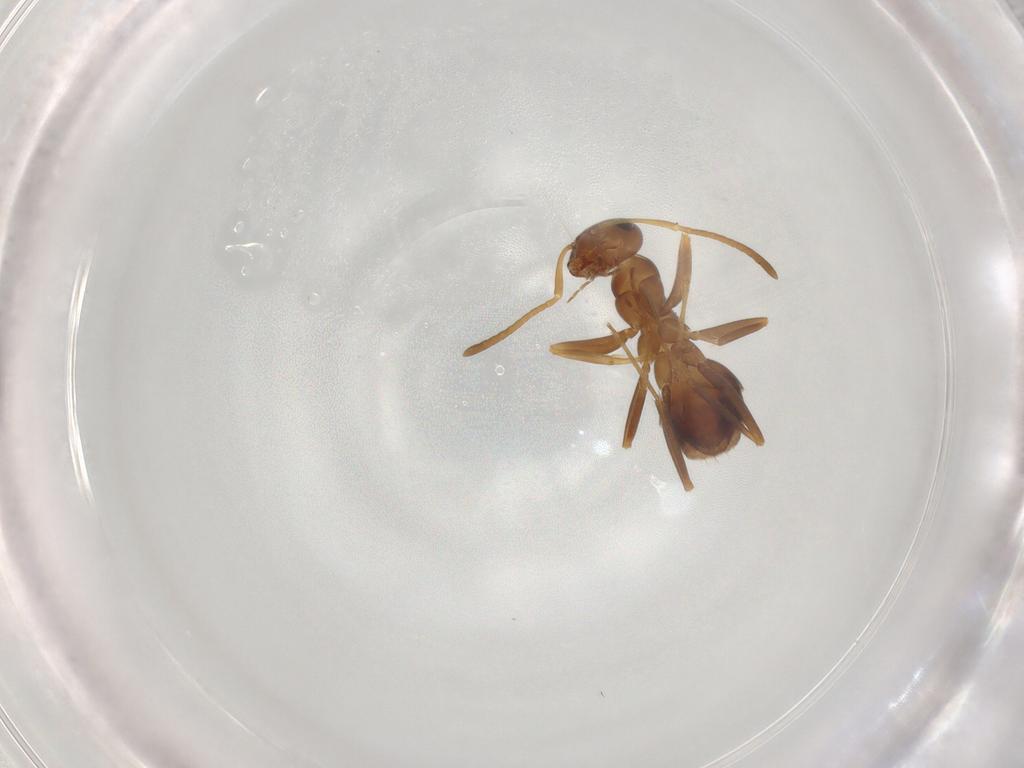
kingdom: Animalia
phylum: Arthropoda
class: Insecta
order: Hymenoptera
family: Formicidae
